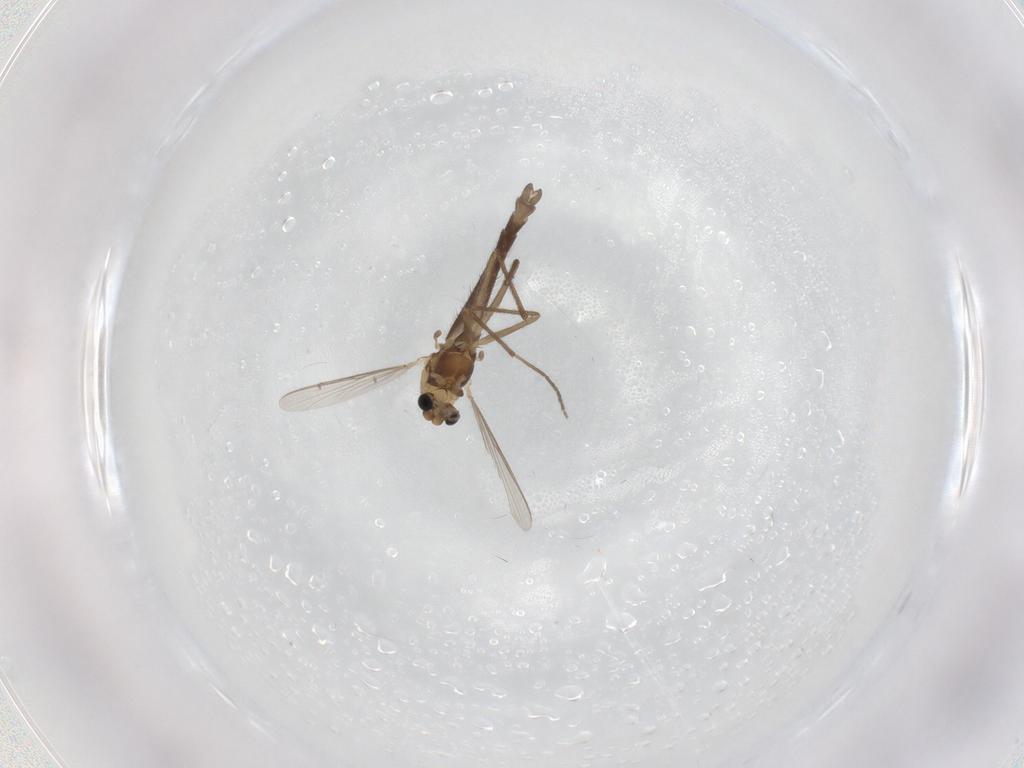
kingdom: Animalia
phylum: Arthropoda
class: Insecta
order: Diptera
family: Chironomidae
